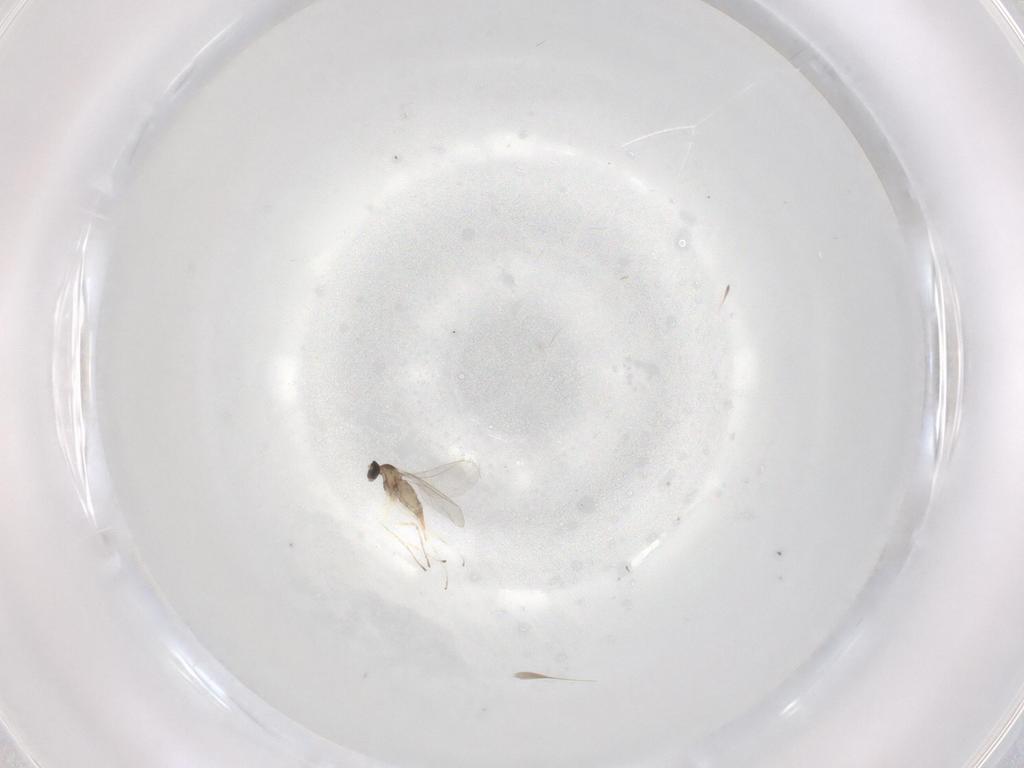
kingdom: Animalia
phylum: Arthropoda
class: Insecta
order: Diptera
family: Cecidomyiidae
